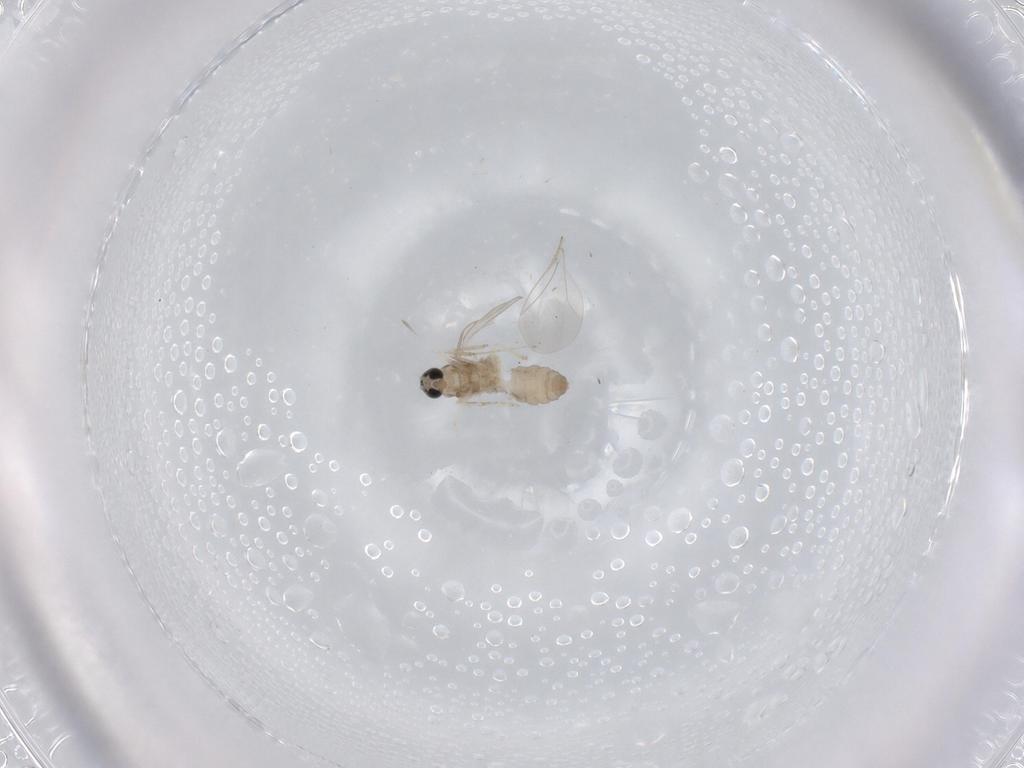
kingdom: Animalia
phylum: Arthropoda
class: Insecta
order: Diptera
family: Cecidomyiidae
